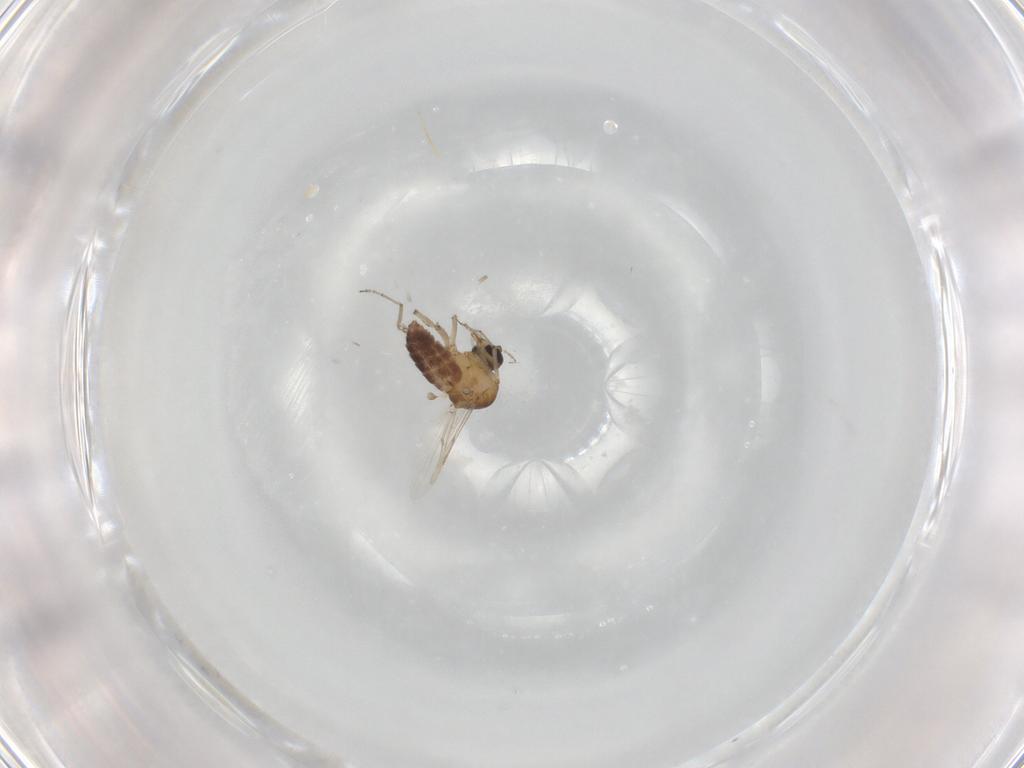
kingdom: Animalia
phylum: Arthropoda
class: Insecta
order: Diptera
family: Ceratopogonidae
